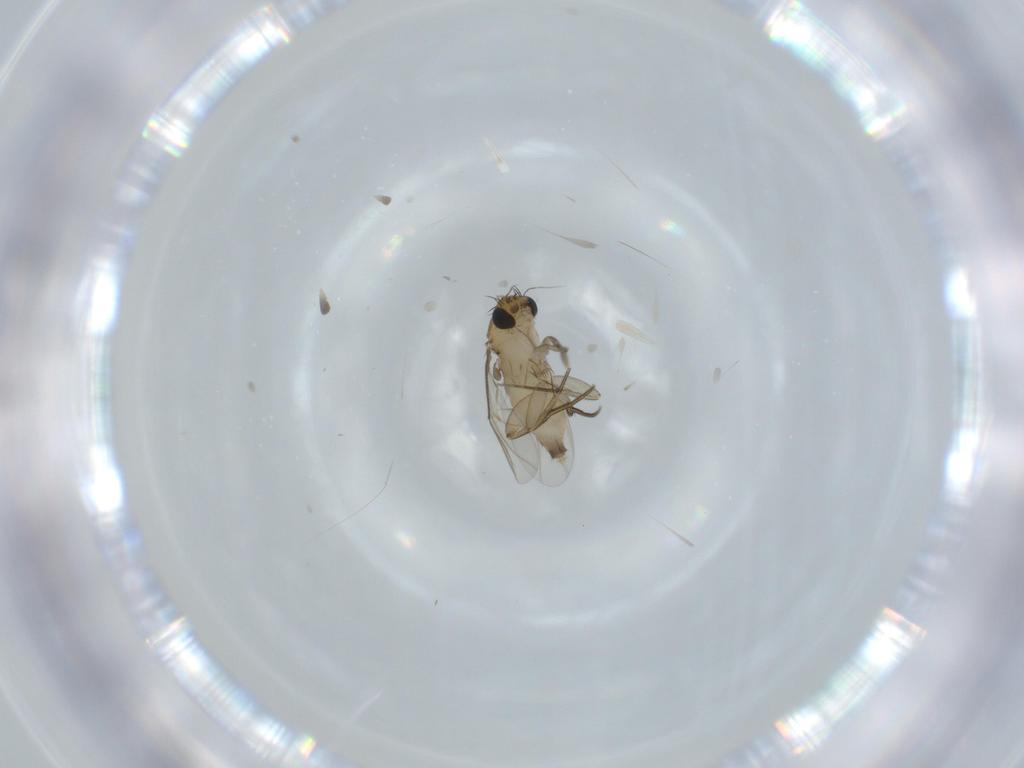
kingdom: Animalia
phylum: Arthropoda
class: Insecta
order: Diptera
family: Phoridae
